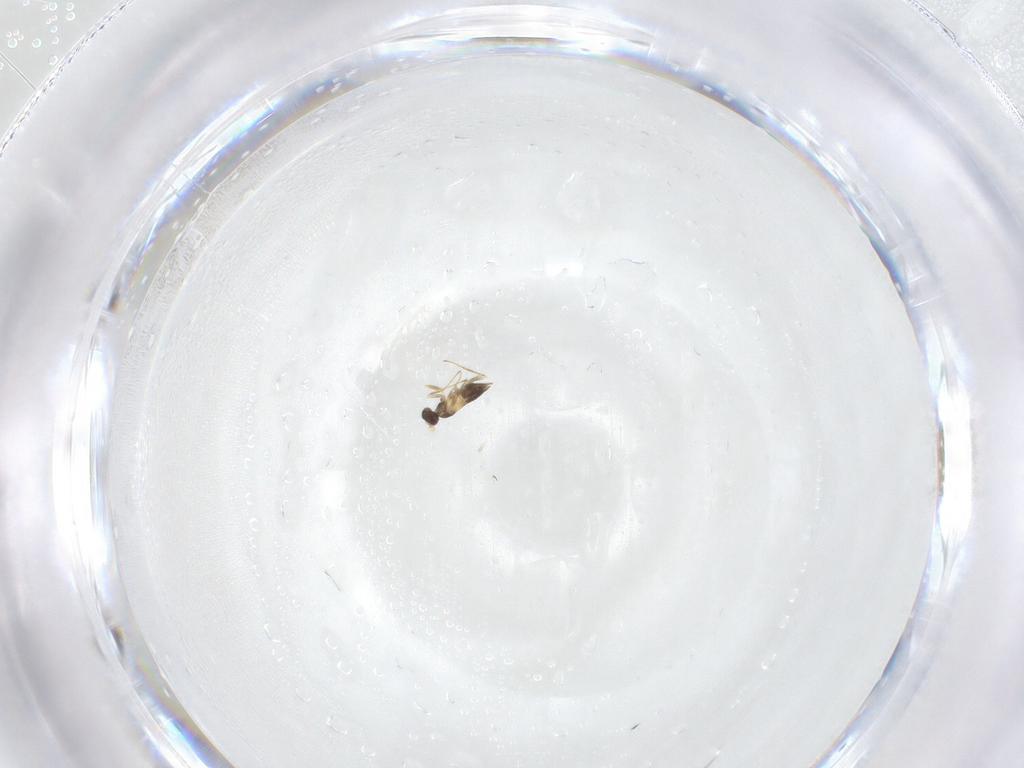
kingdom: Animalia
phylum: Arthropoda
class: Insecta
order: Hymenoptera
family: Mymaridae
